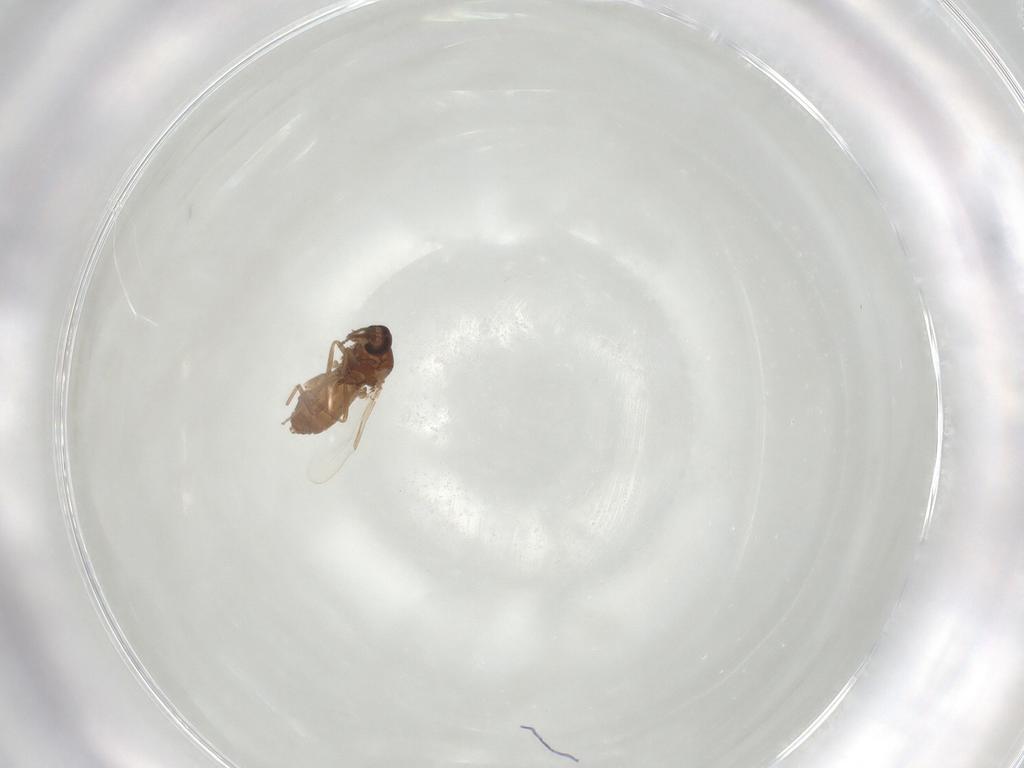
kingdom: Animalia
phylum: Arthropoda
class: Insecta
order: Diptera
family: Cecidomyiidae
